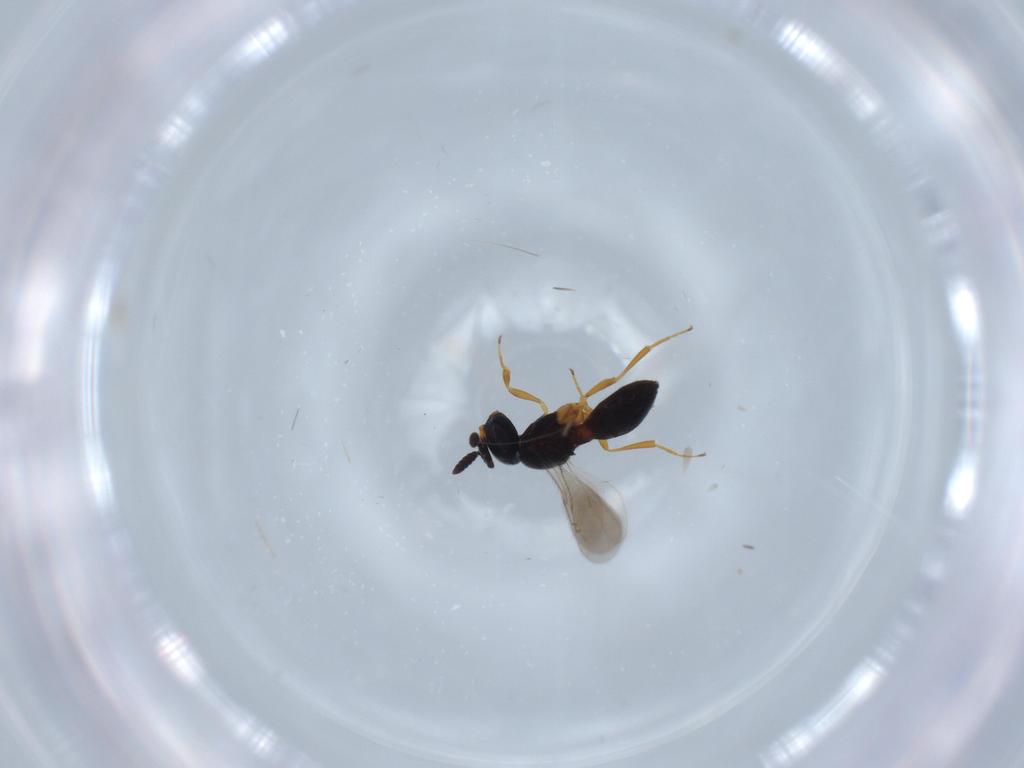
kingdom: Animalia
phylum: Arthropoda
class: Insecta
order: Hymenoptera
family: Scelionidae
